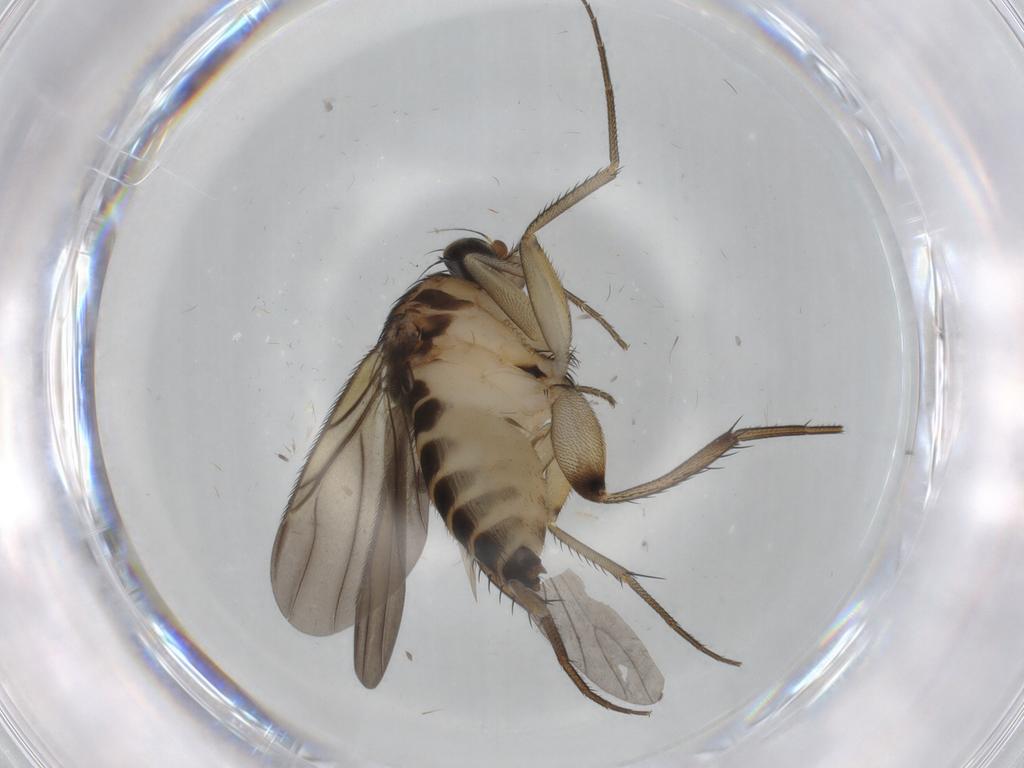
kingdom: Animalia
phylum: Arthropoda
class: Insecta
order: Diptera
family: Phoridae
